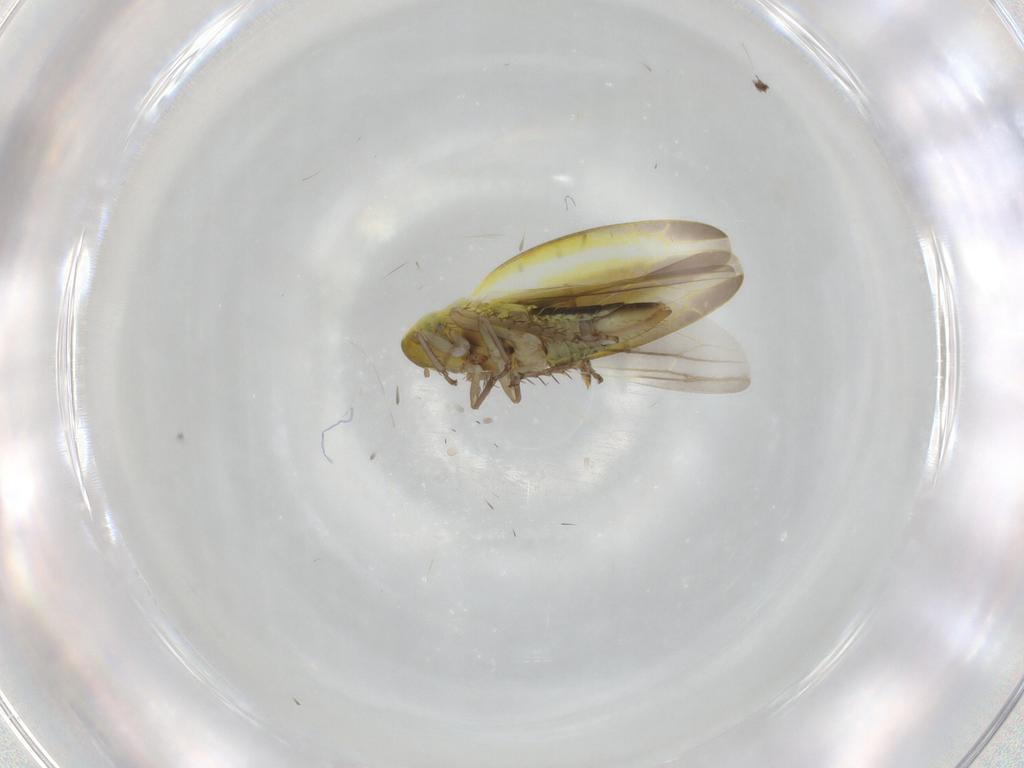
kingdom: Animalia
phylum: Arthropoda
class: Insecta
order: Hemiptera
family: Cicadellidae
